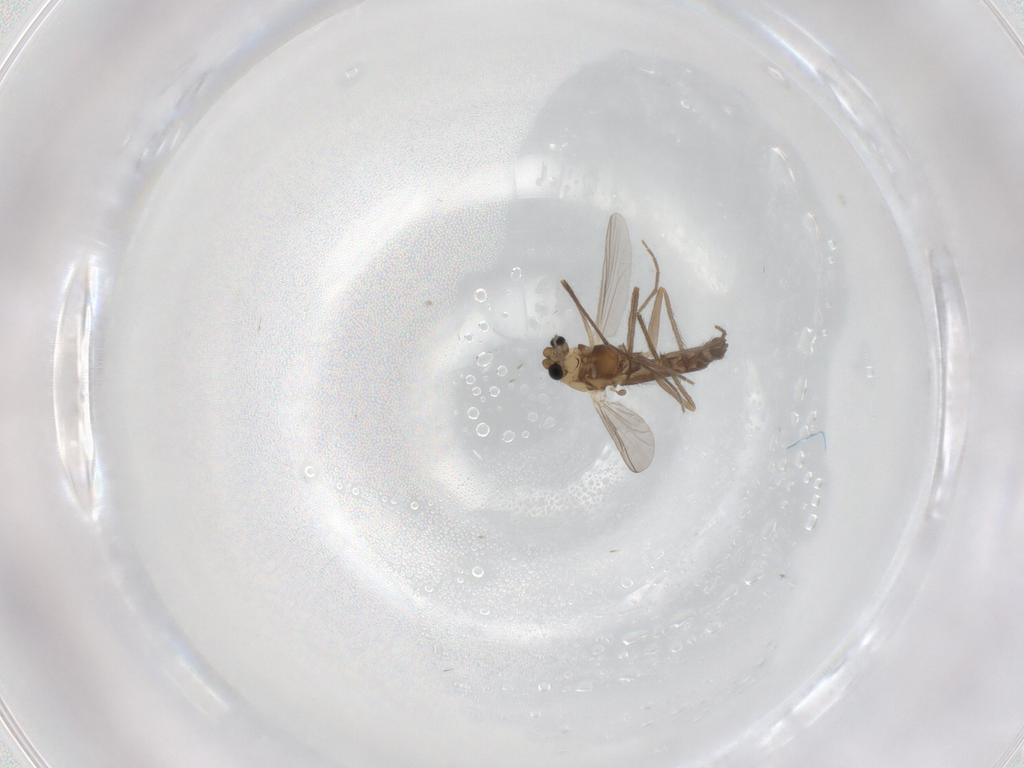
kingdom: Animalia
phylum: Arthropoda
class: Insecta
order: Diptera
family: Chironomidae
